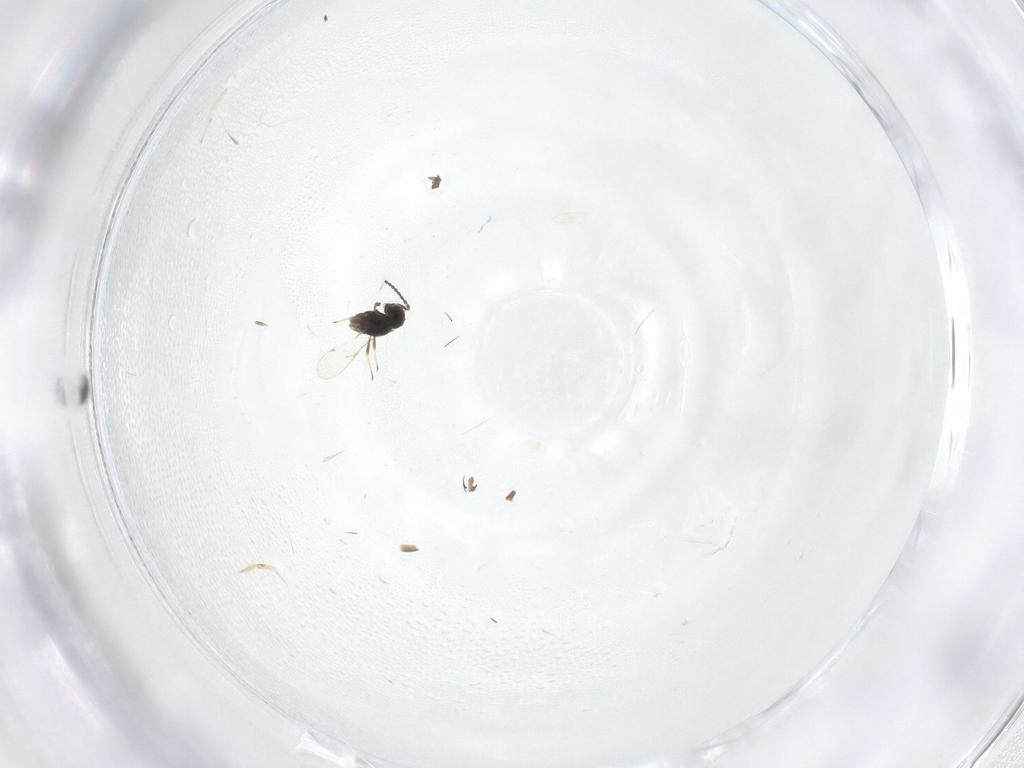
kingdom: Animalia
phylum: Arthropoda
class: Insecta
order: Hymenoptera
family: Scelionidae
